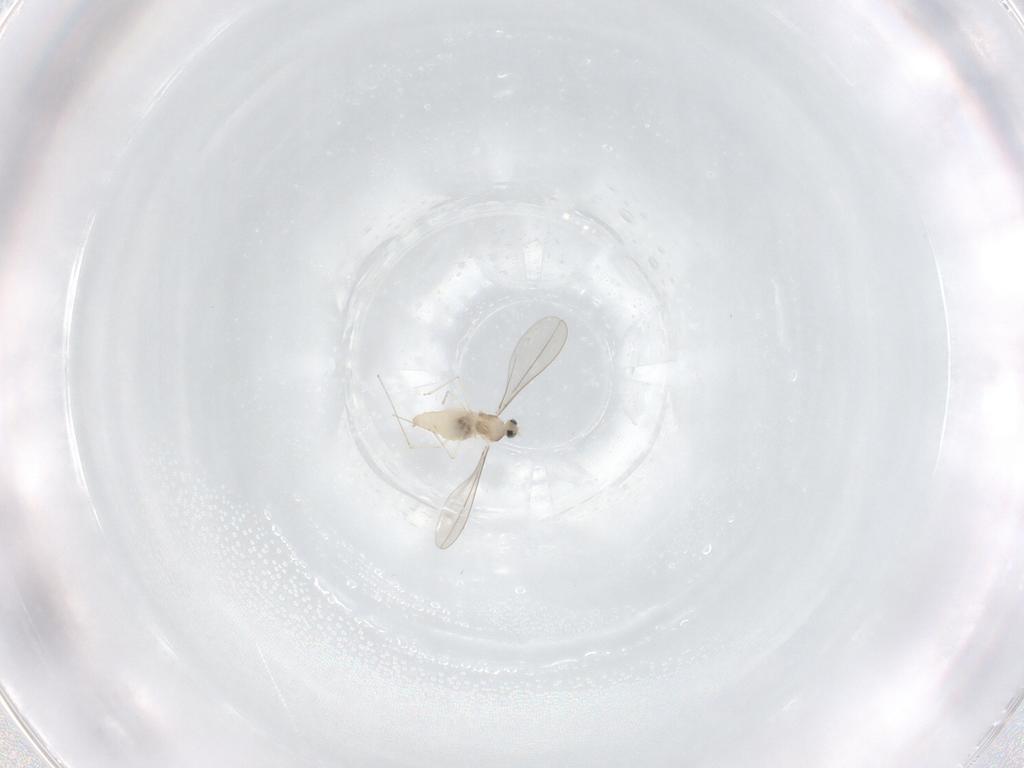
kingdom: Animalia
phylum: Arthropoda
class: Insecta
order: Diptera
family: Cecidomyiidae
